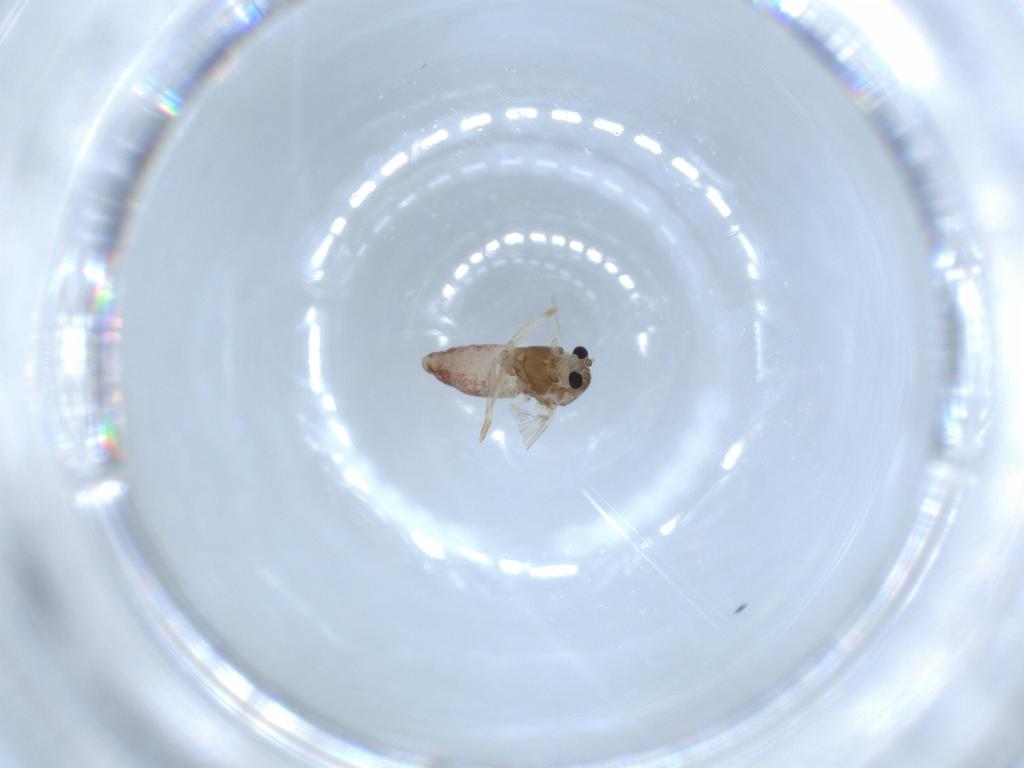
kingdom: Animalia
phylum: Arthropoda
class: Insecta
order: Diptera
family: Chironomidae
